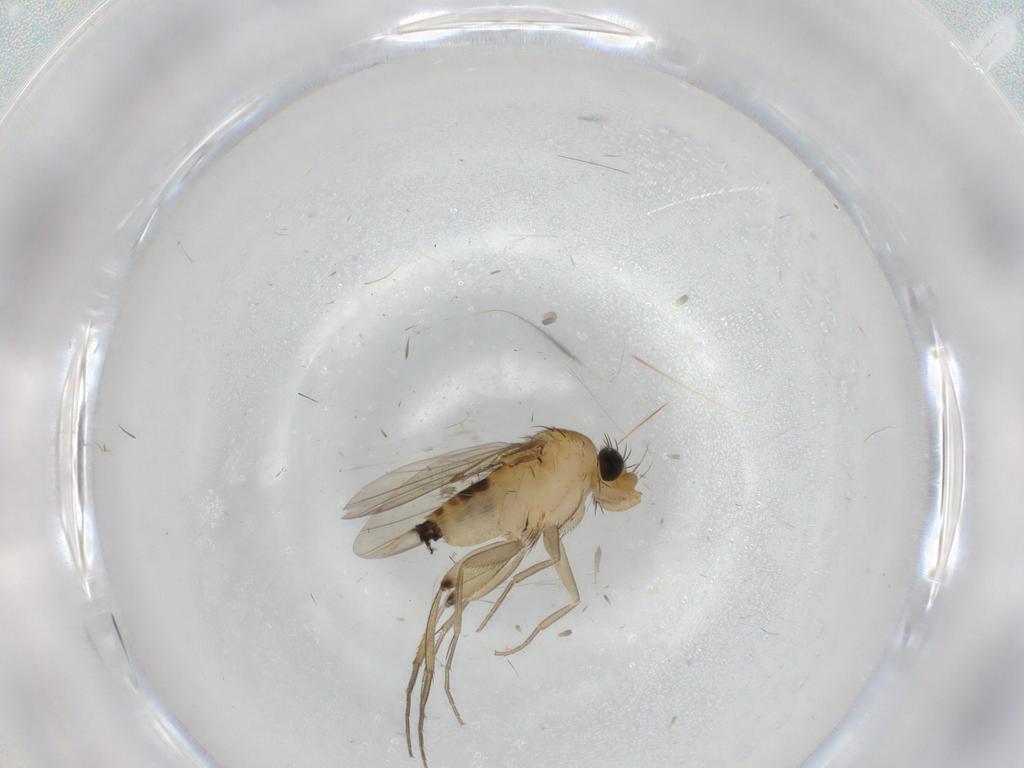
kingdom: Animalia
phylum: Arthropoda
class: Insecta
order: Diptera
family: Phoridae
